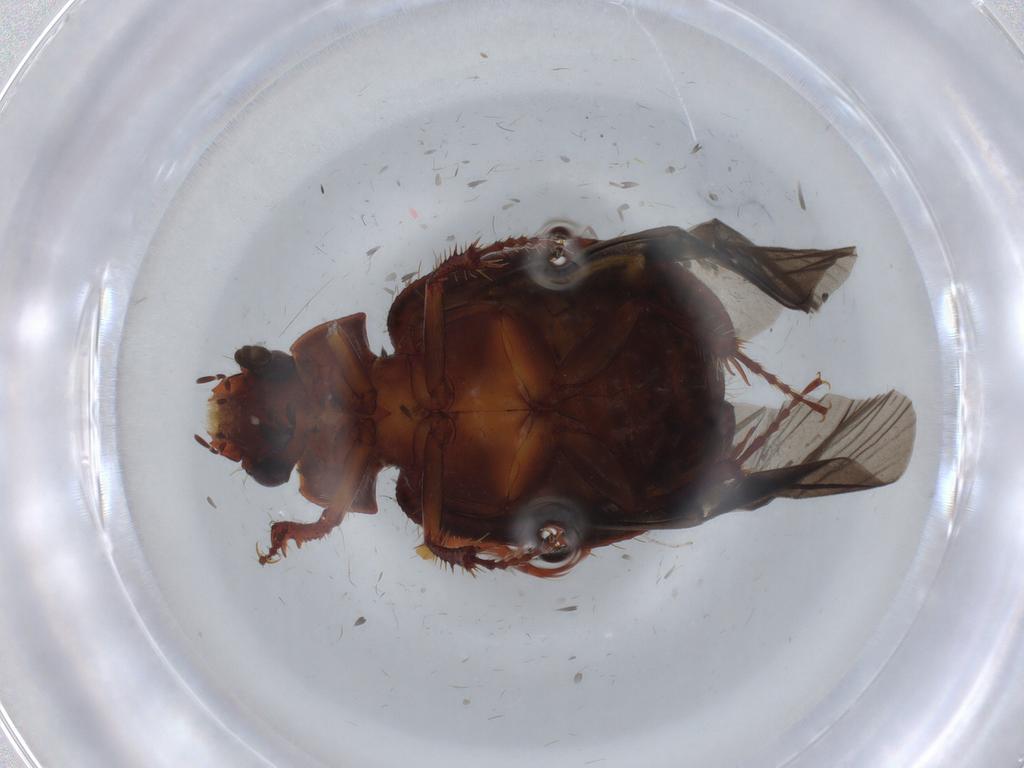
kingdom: Animalia
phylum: Arthropoda
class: Insecta
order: Coleoptera
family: Hybosoridae
